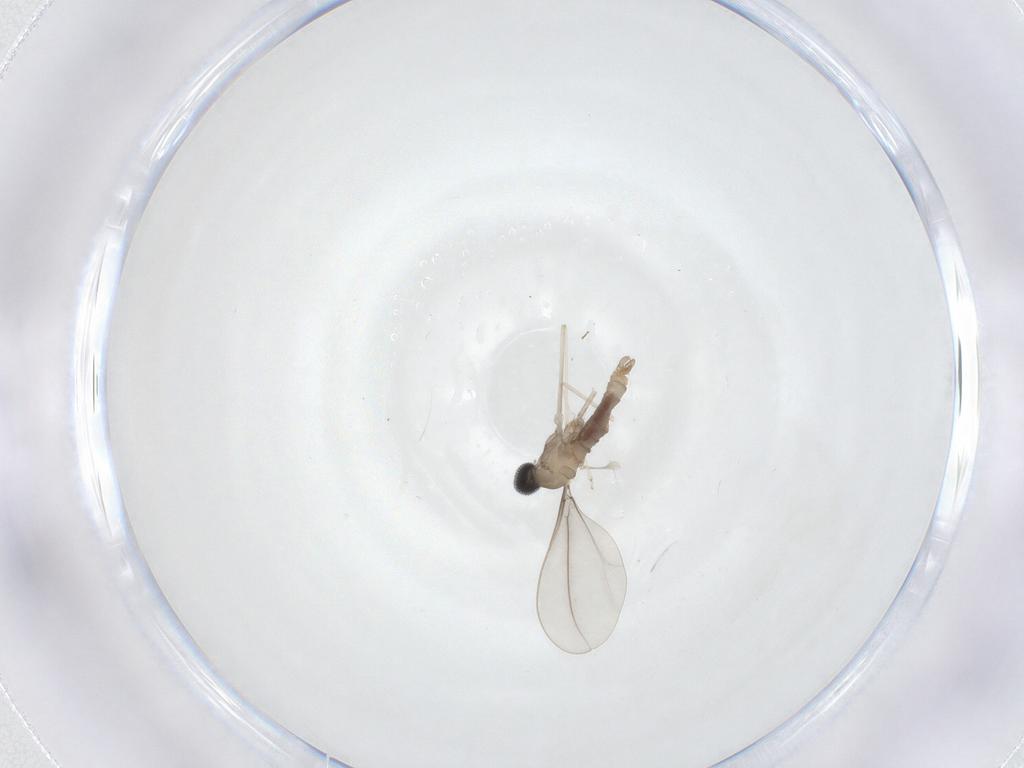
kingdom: Animalia
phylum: Arthropoda
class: Insecta
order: Diptera
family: Cecidomyiidae
